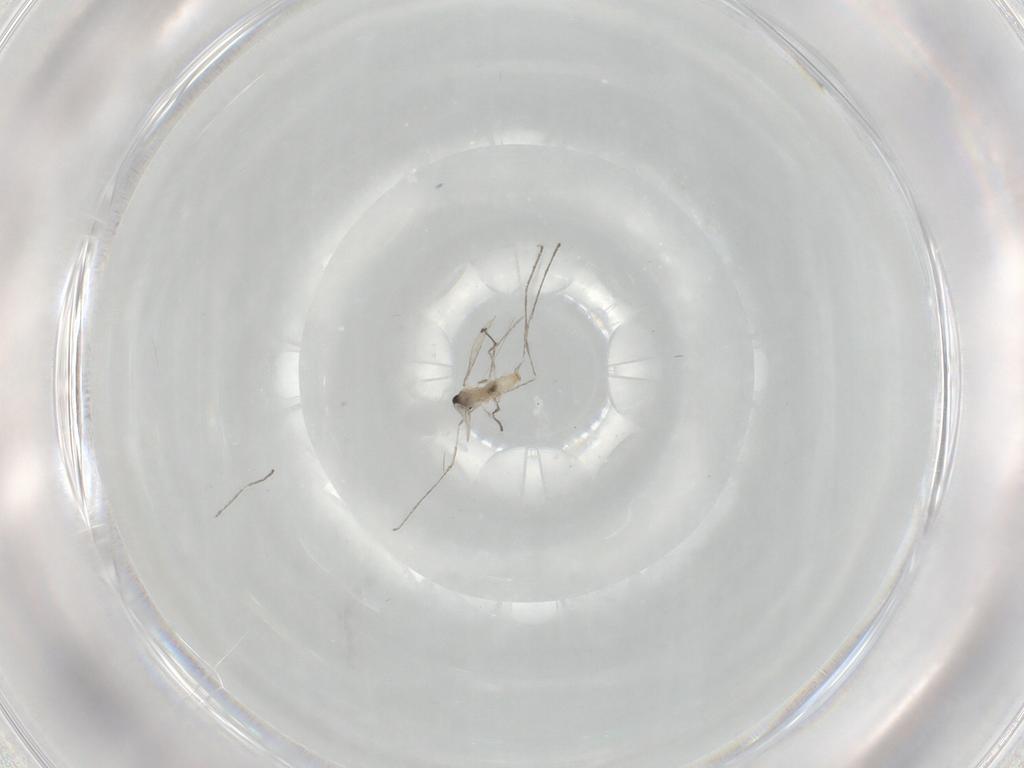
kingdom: Animalia
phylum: Arthropoda
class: Insecta
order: Diptera
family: Cecidomyiidae
